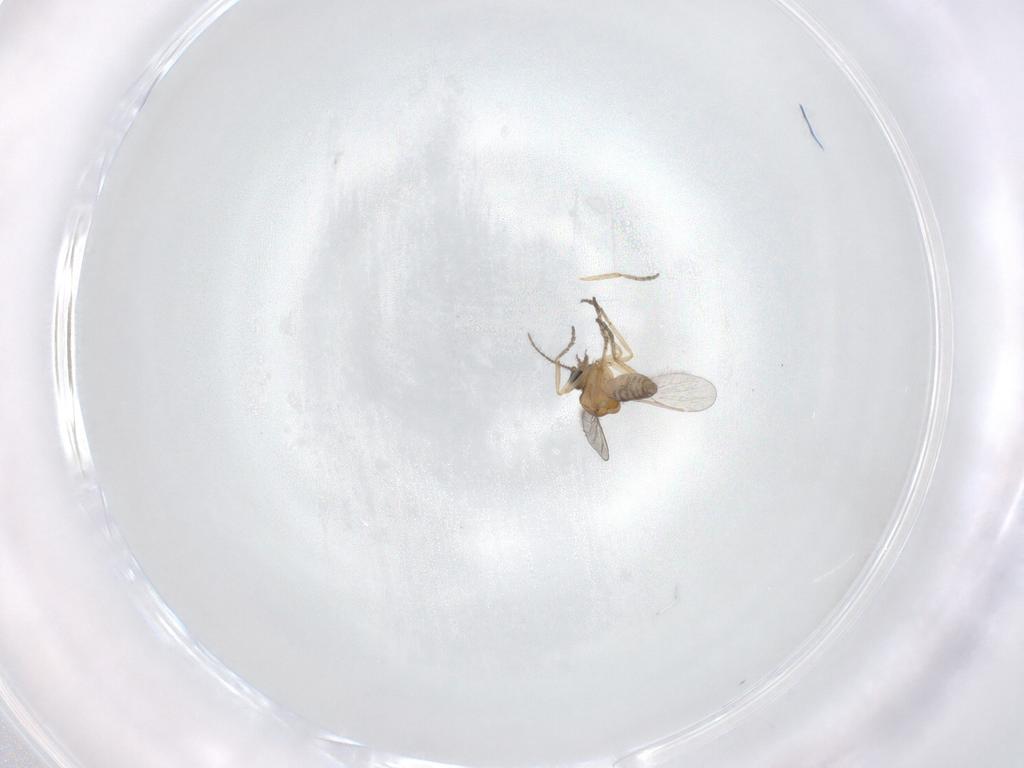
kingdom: Animalia
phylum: Arthropoda
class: Insecta
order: Diptera
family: Ceratopogonidae
